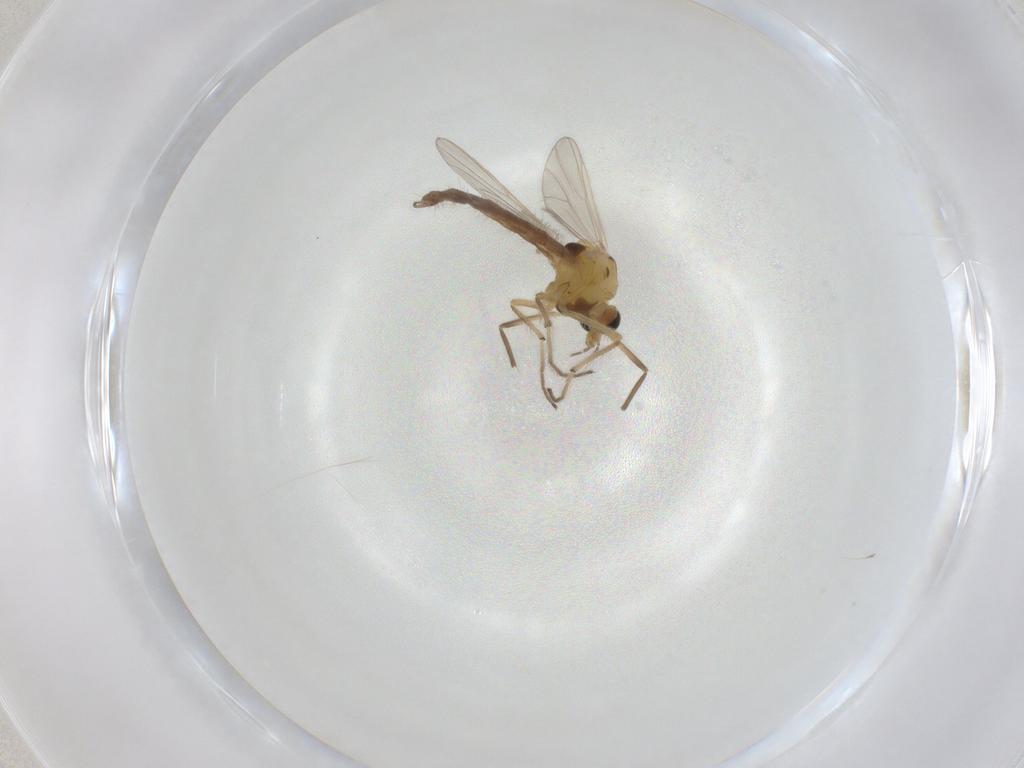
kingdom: Animalia
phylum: Arthropoda
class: Insecta
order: Diptera
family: Chironomidae
